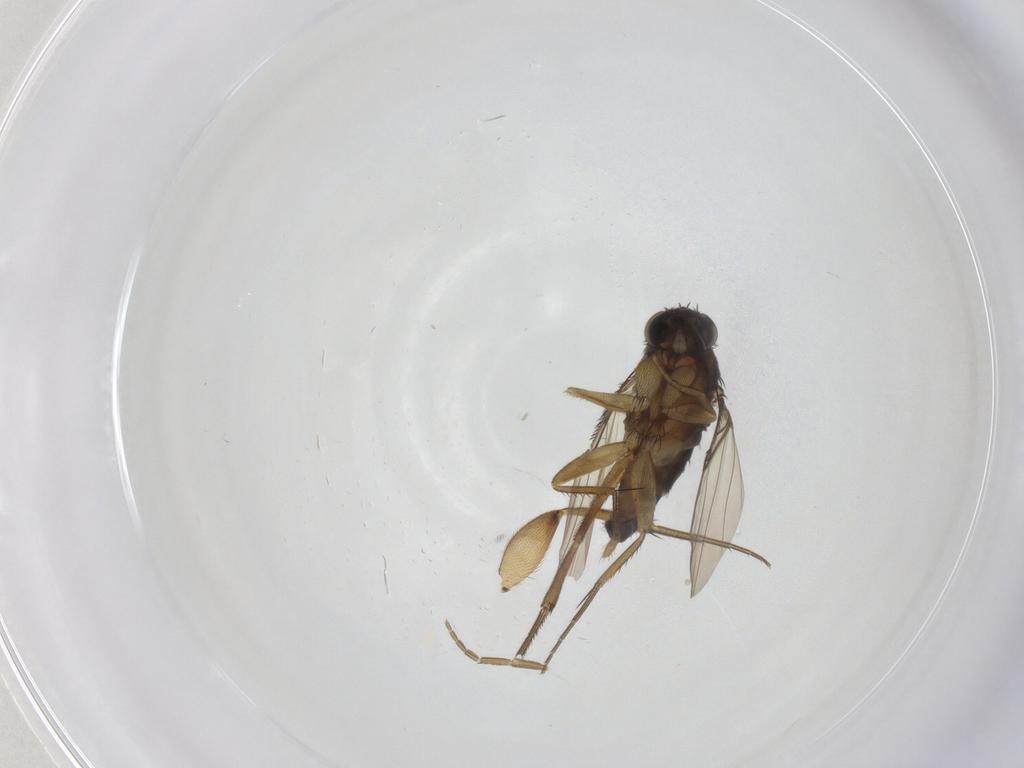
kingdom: Animalia
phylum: Arthropoda
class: Insecta
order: Diptera
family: Phoridae
